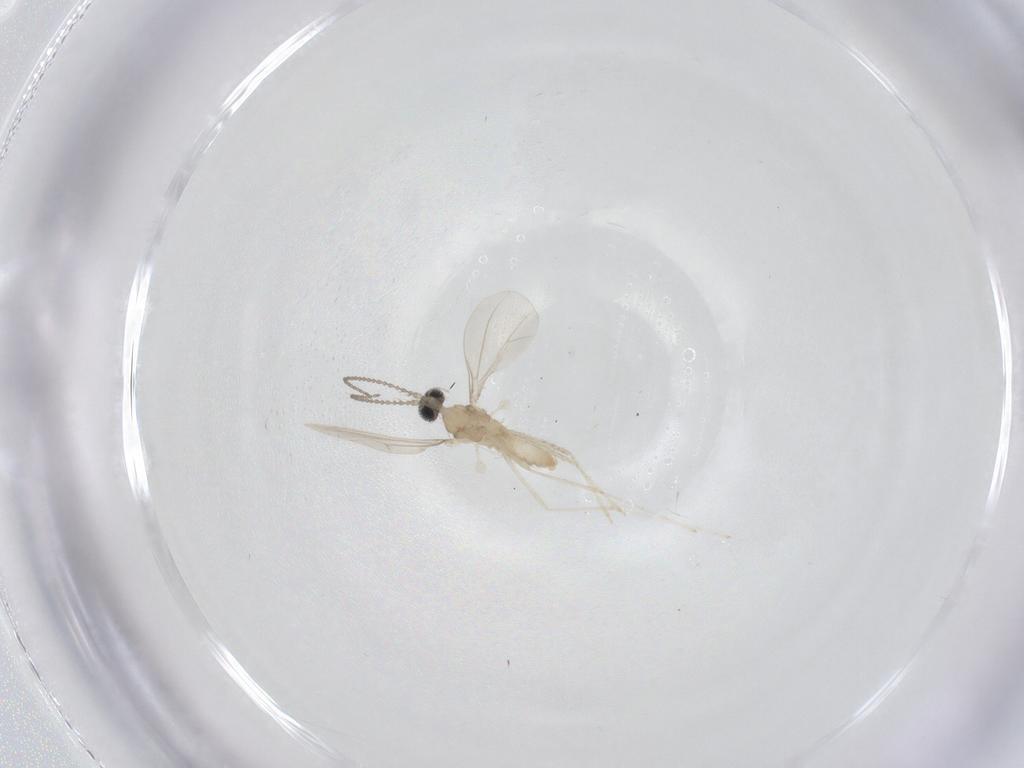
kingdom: Animalia
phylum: Arthropoda
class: Insecta
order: Diptera
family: Cecidomyiidae
